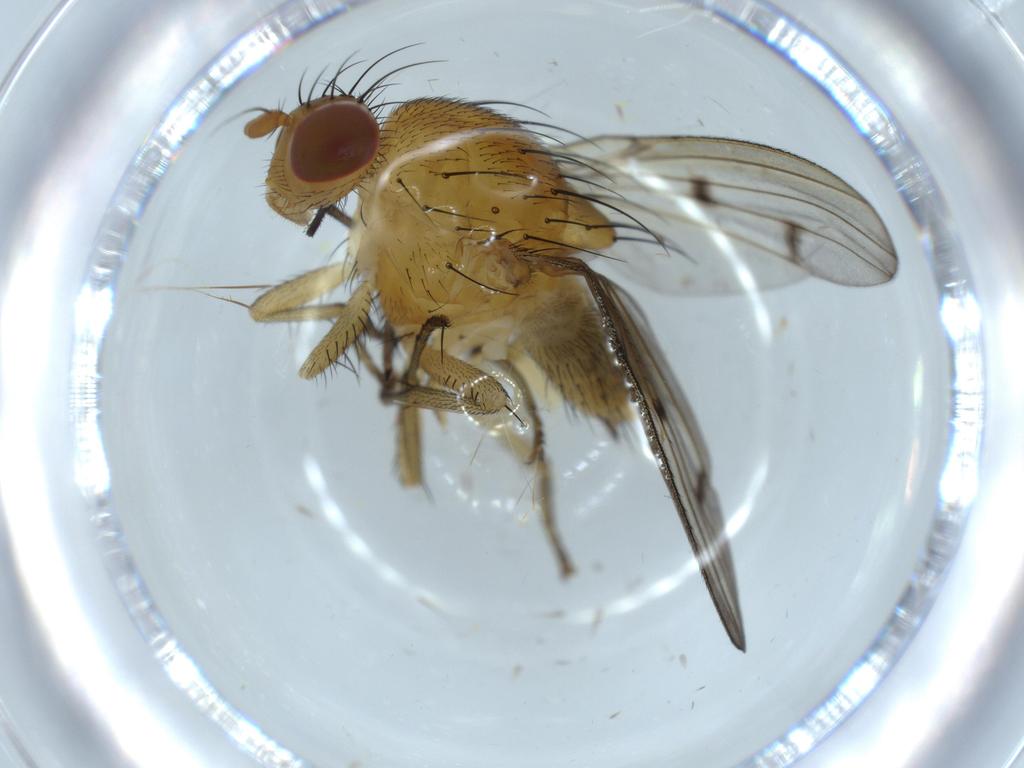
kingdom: Animalia
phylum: Arthropoda
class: Insecta
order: Diptera
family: Sciaridae
